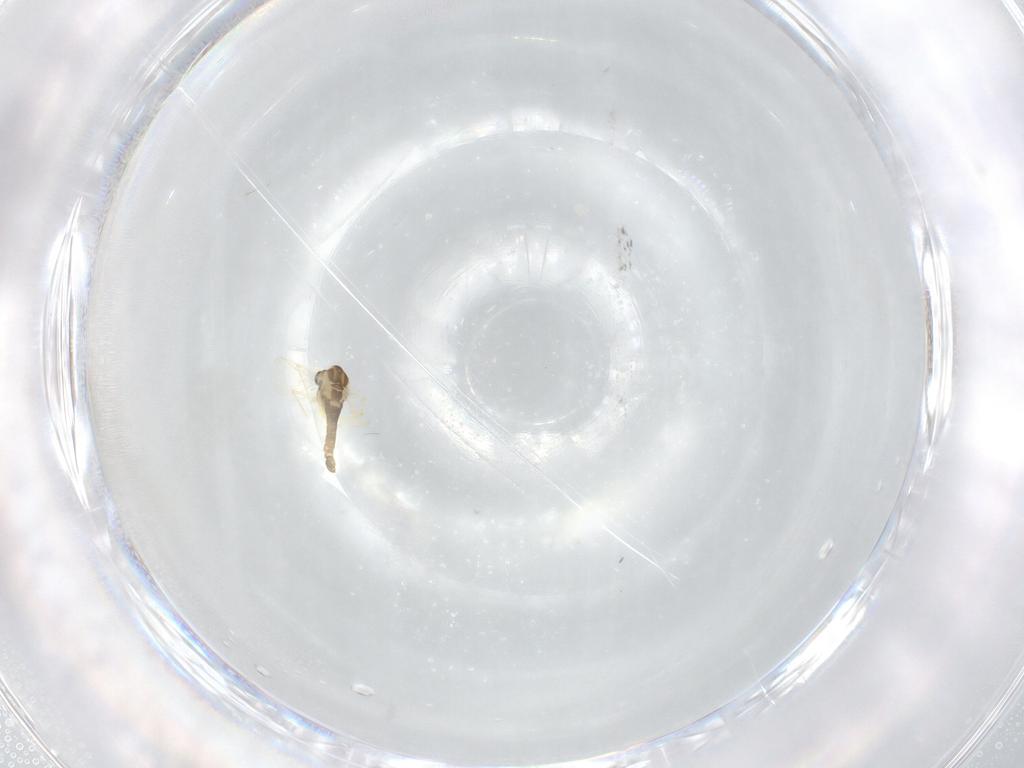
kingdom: Animalia
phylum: Arthropoda
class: Insecta
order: Diptera
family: Chironomidae
